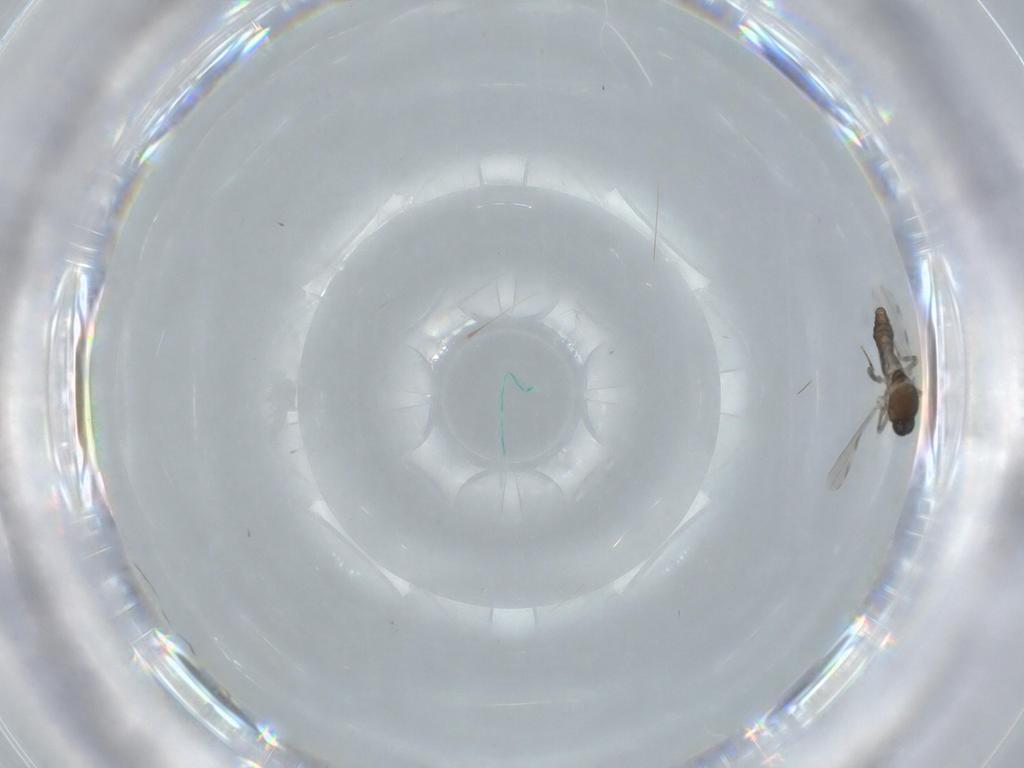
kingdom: Animalia
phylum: Arthropoda
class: Insecta
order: Diptera
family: Ceratopogonidae
